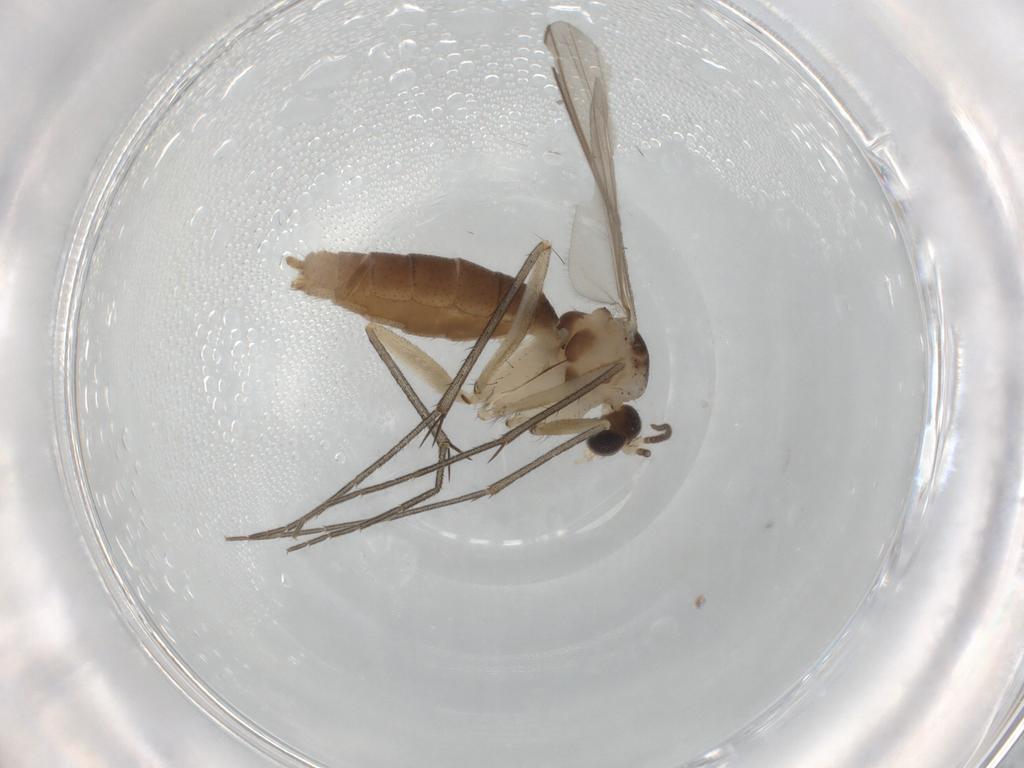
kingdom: Animalia
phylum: Arthropoda
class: Insecta
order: Diptera
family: Mycetophilidae
